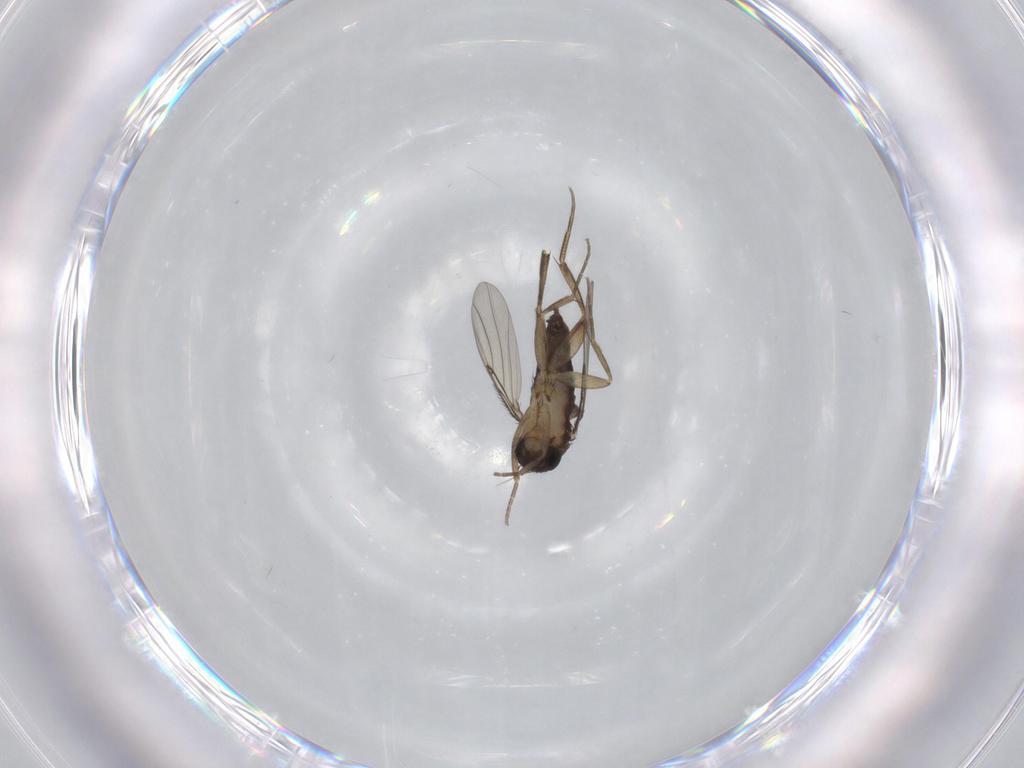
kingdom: Animalia
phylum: Arthropoda
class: Insecta
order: Diptera
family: Phoridae
